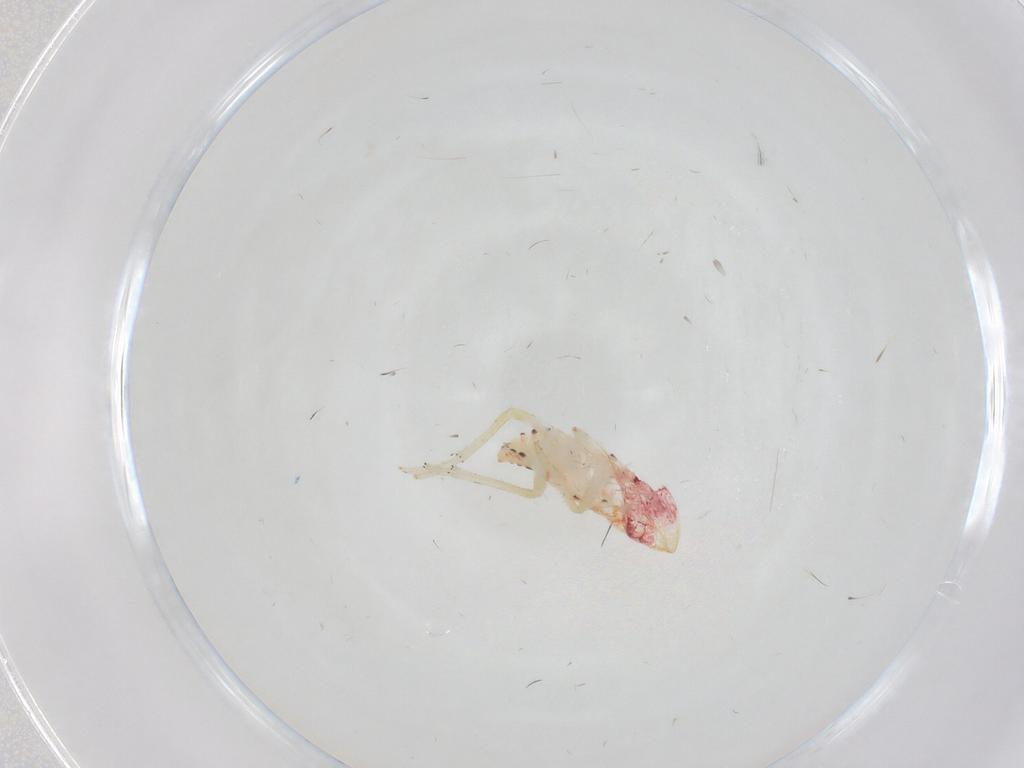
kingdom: Animalia
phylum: Arthropoda
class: Insecta
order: Hemiptera
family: Tropiduchidae
